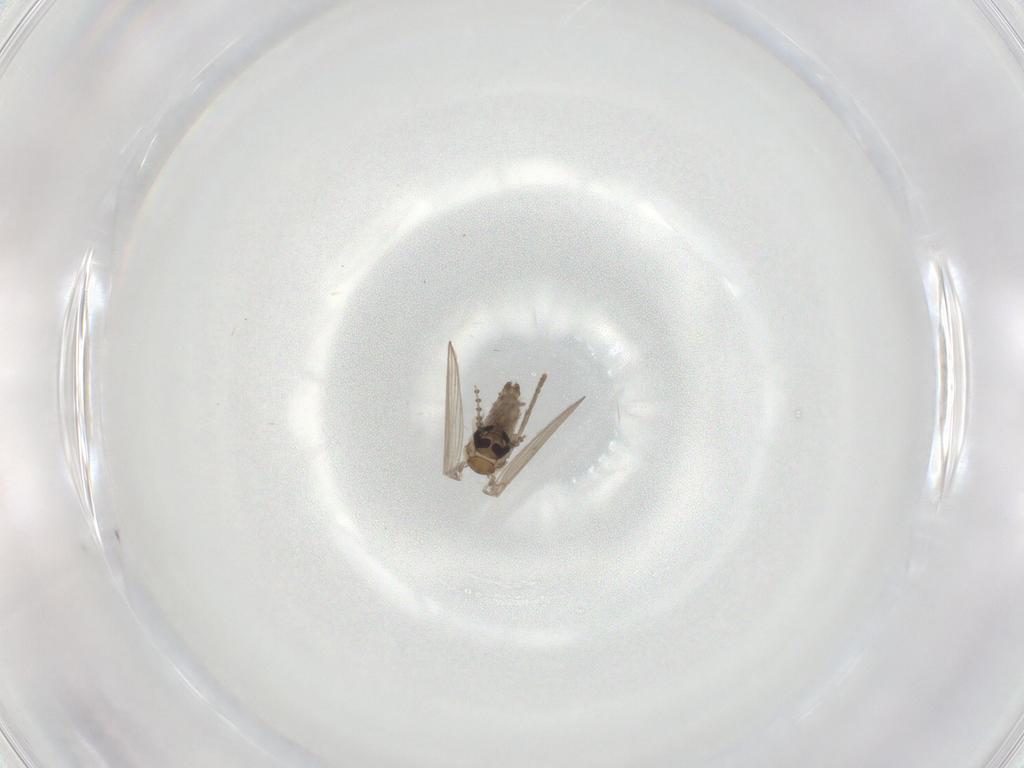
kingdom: Animalia
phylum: Arthropoda
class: Insecta
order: Diptera
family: Psychodidae
